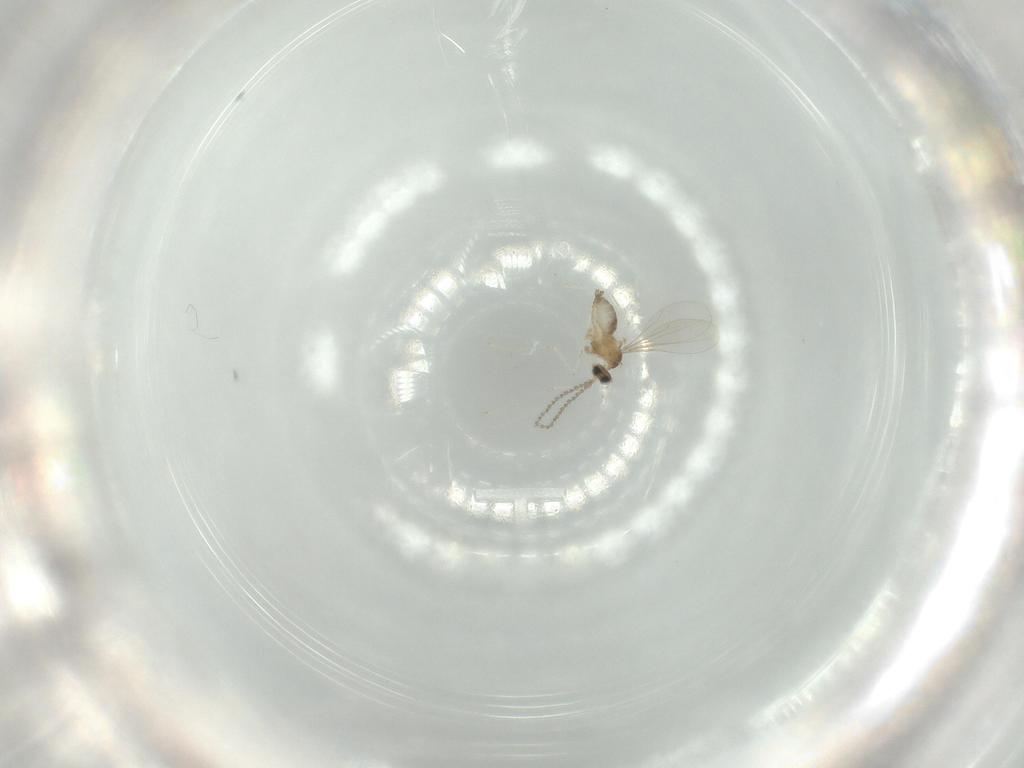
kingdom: Animalia
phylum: Arthropoda
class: Insecta
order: Diptera
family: Cecidomyiidae
